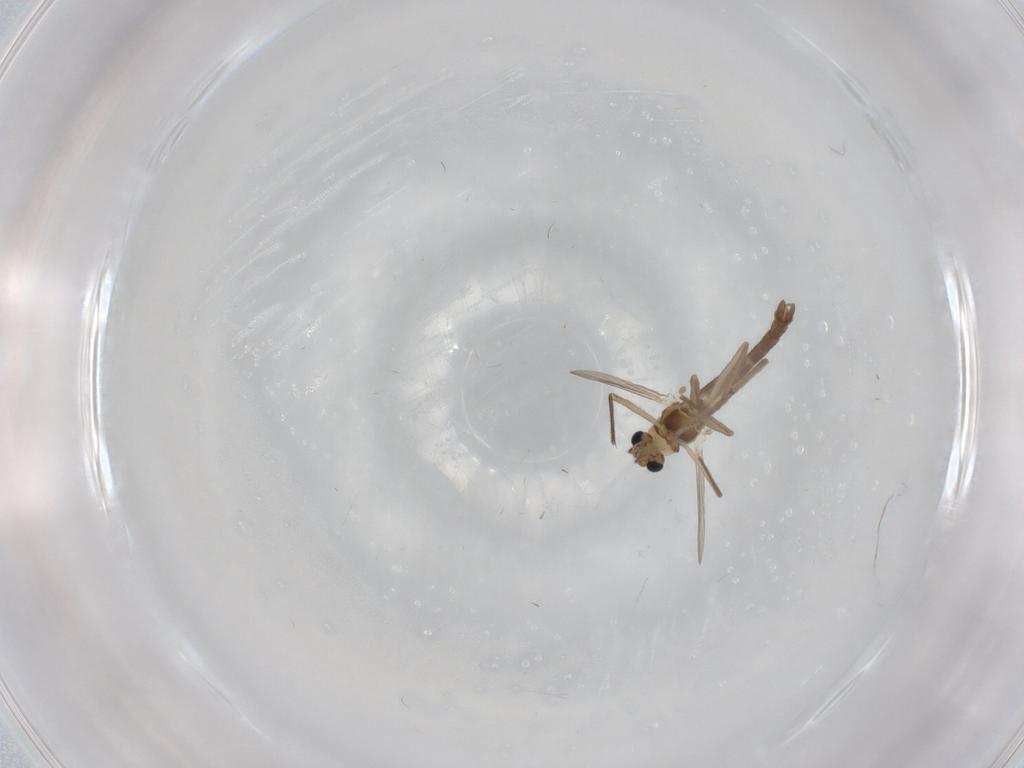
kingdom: Animalia
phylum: Arthropoda
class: Insecta
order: Diptera
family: Chironomidae
